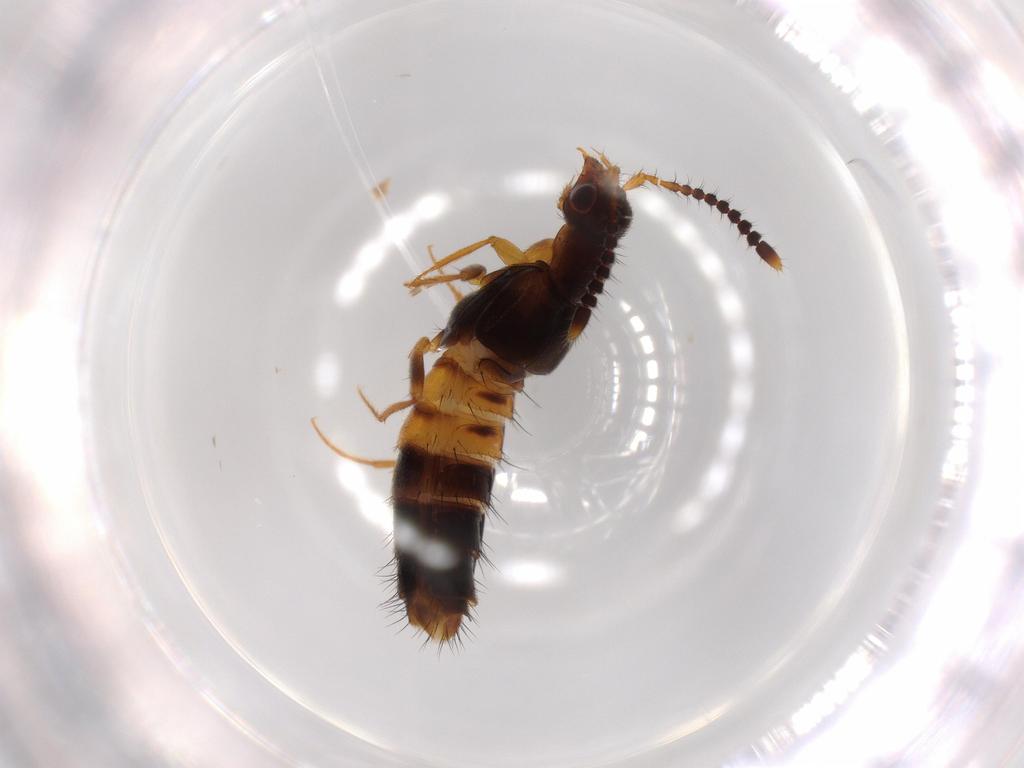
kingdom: Animalia
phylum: Arthropoda
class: Insecta
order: Coleoptera
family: Staphylinidae
